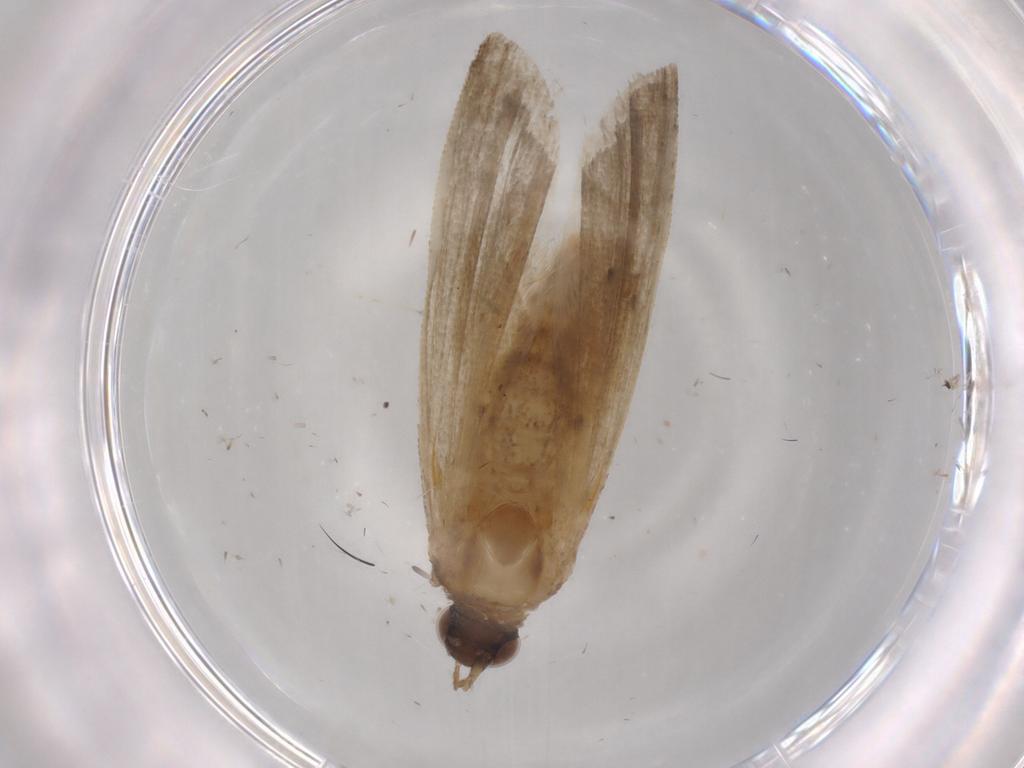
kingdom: Animalia
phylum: Arthropoda
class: Insecta
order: Lepidoptera
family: Noctuidae
